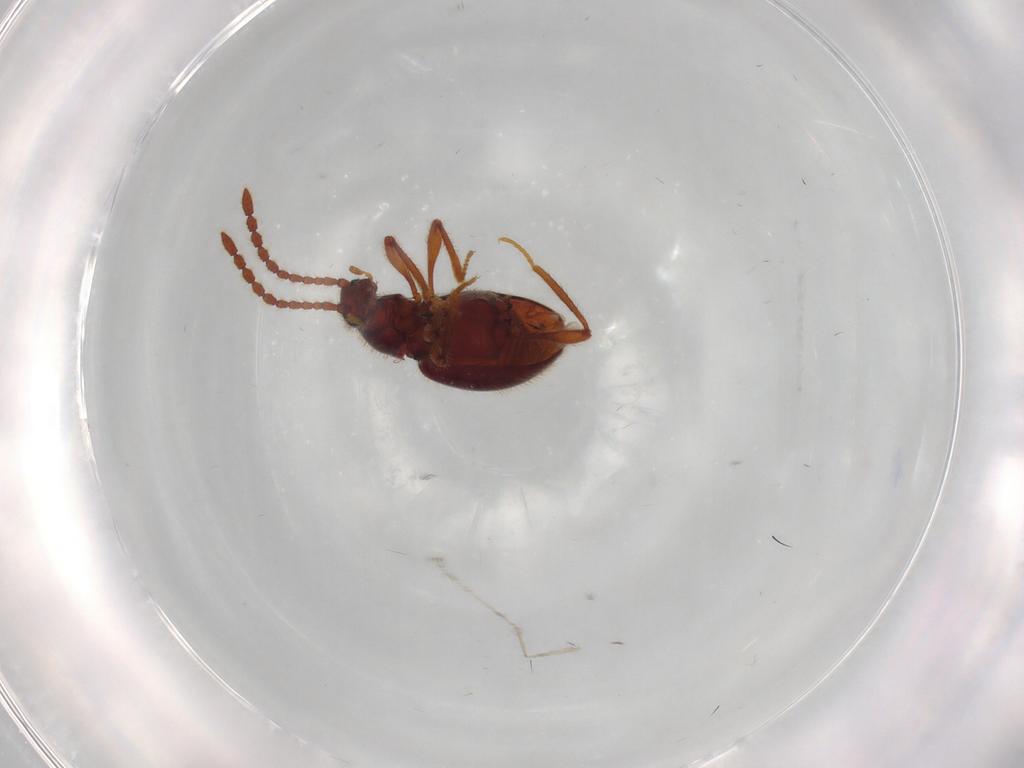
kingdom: Animalia
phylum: Arthropoda
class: Insecta
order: Coleoptera
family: Staphylinidae
